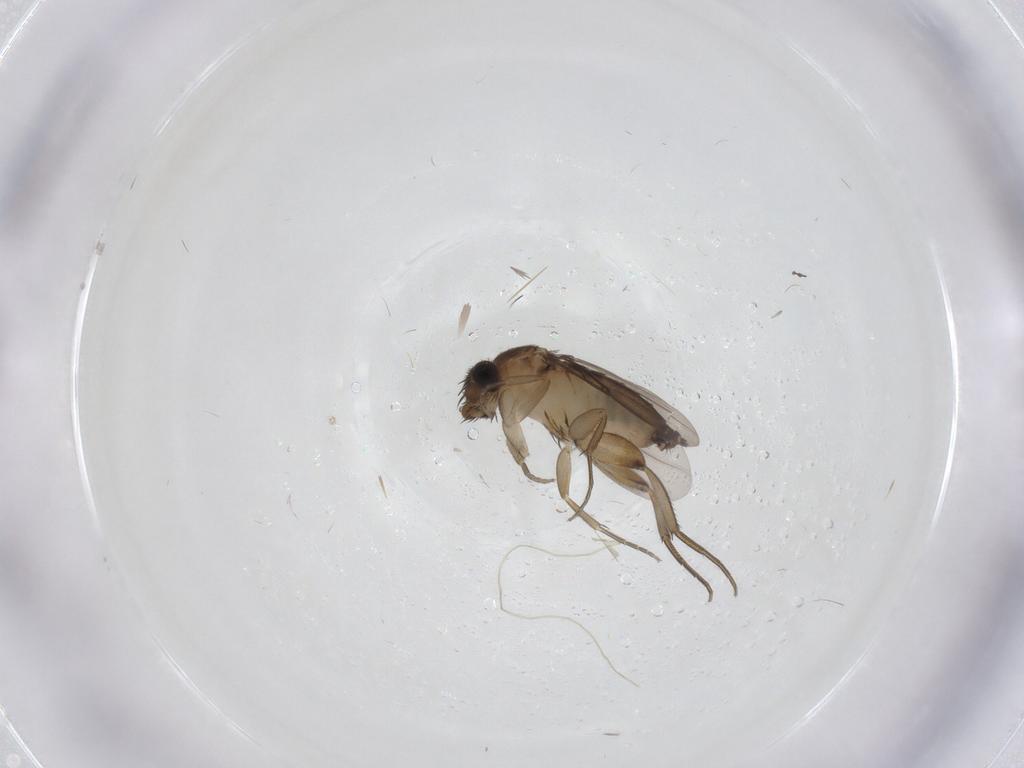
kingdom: Animalia
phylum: Arthropoda
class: Insecta
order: Diptera
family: Phoridae
